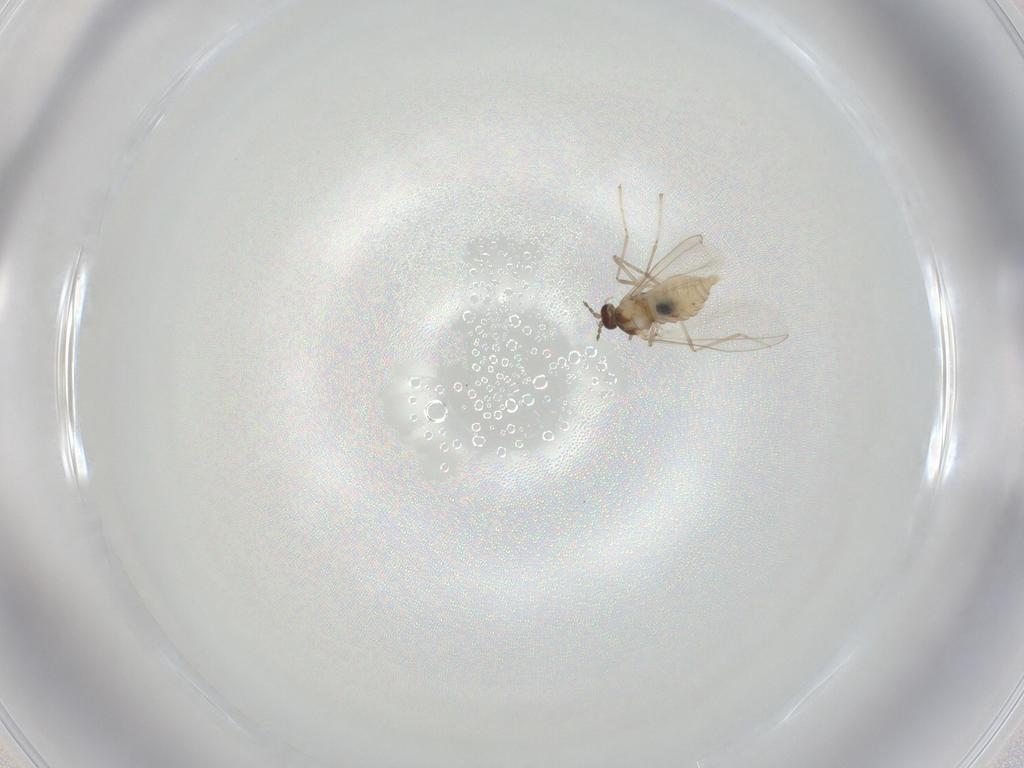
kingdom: Animalia
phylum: Arthropoda
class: Insecta
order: Diptera
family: Cecidomyiidae
